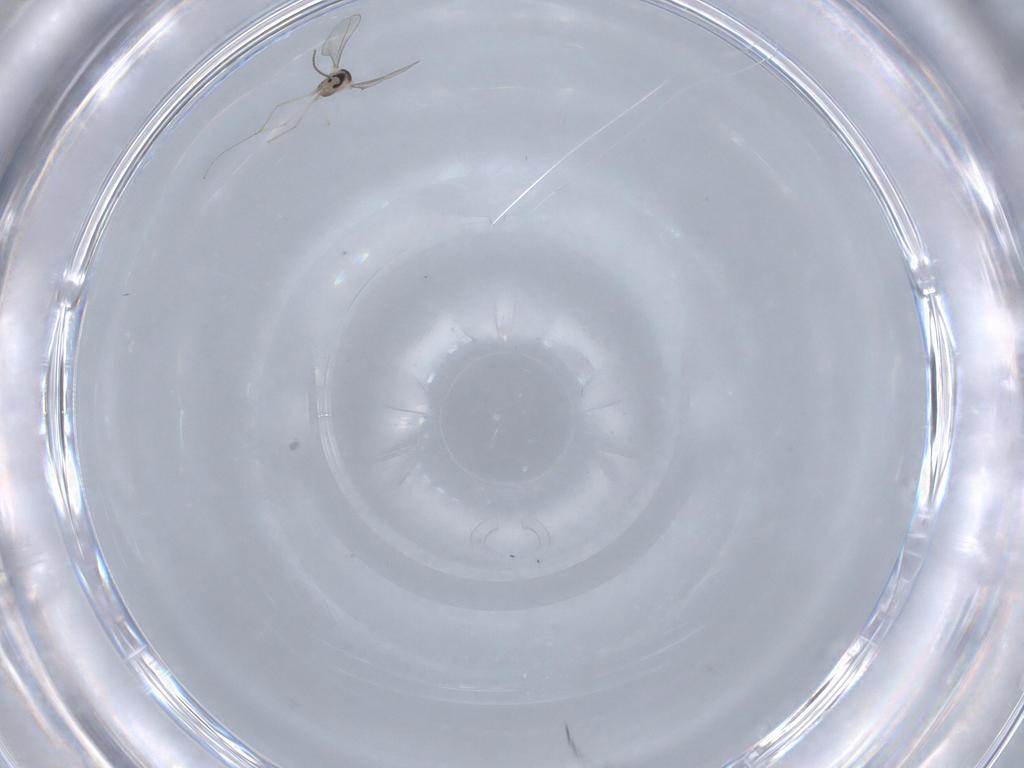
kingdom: Animalia
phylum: Arthropoda
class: Insecta
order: Diptera
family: Cecidomyiidae
